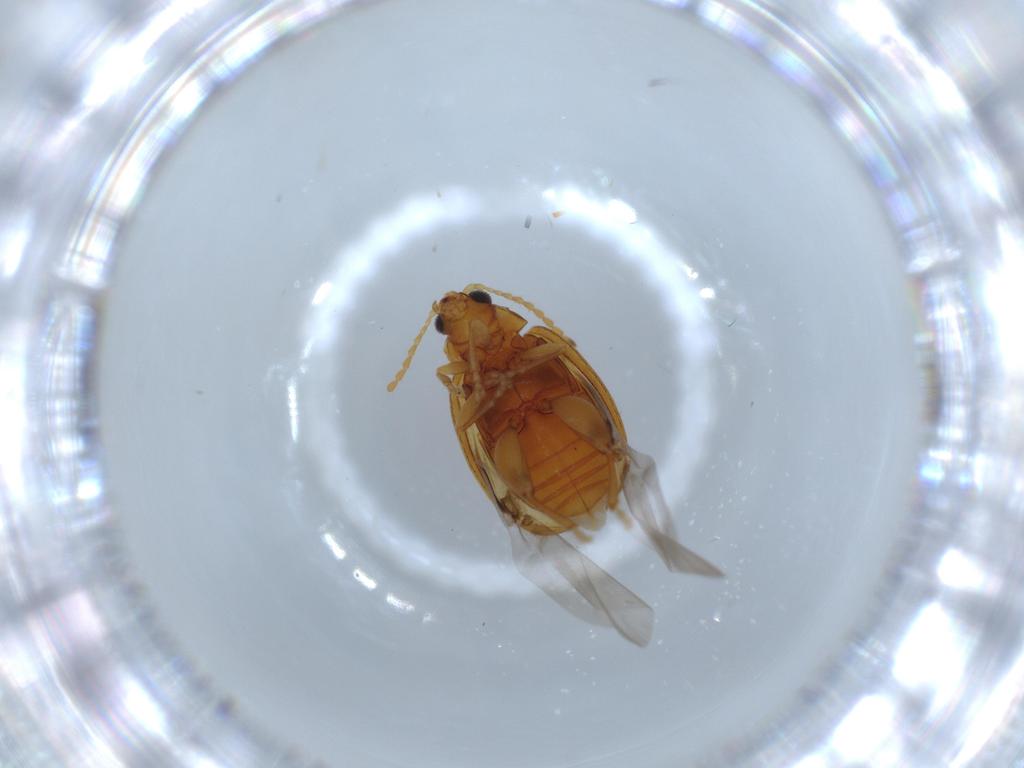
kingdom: Animalia
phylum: Arthropoda
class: Insecta
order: Coleoptera
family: Chrysomelidae
